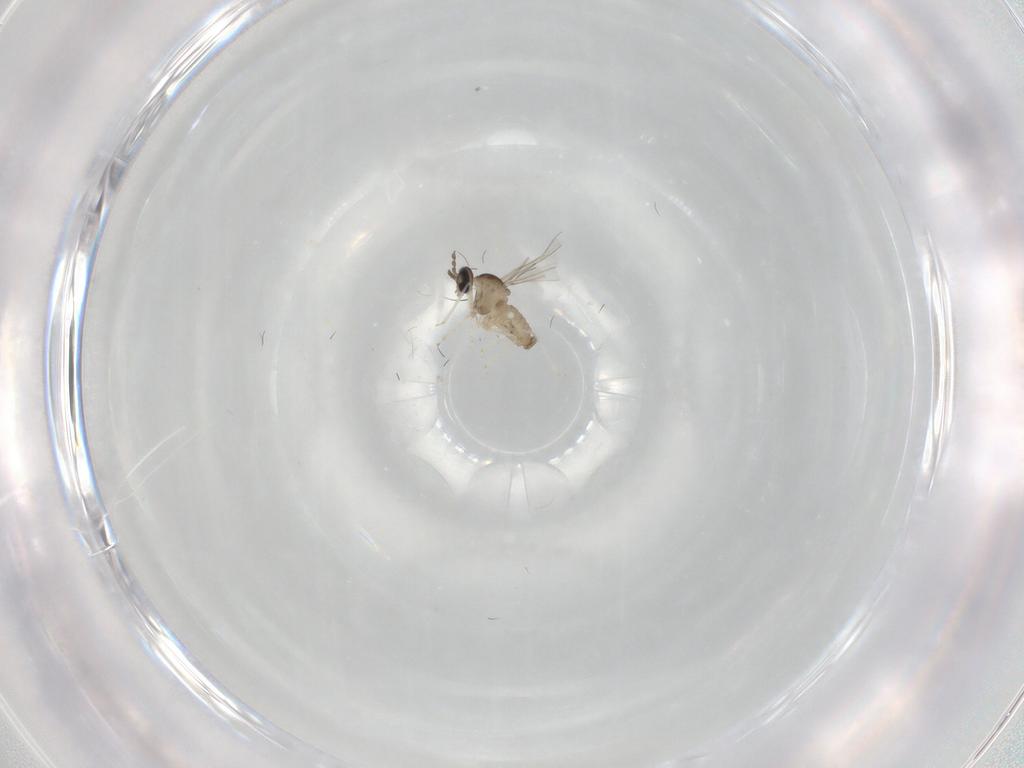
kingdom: Animalia
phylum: Arthropoda
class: Insecta
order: Diptera
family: Cecidomyiidae
